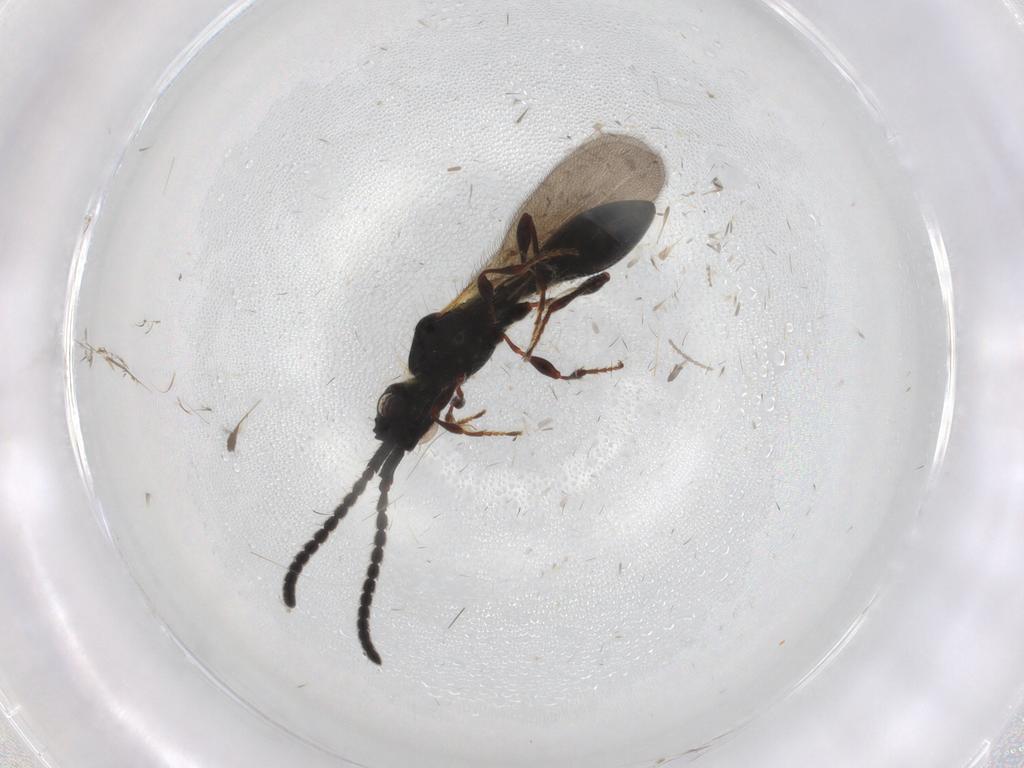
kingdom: Animalia
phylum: Arthropoda
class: Insecta
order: Hymenoptera
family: Diapriidae
